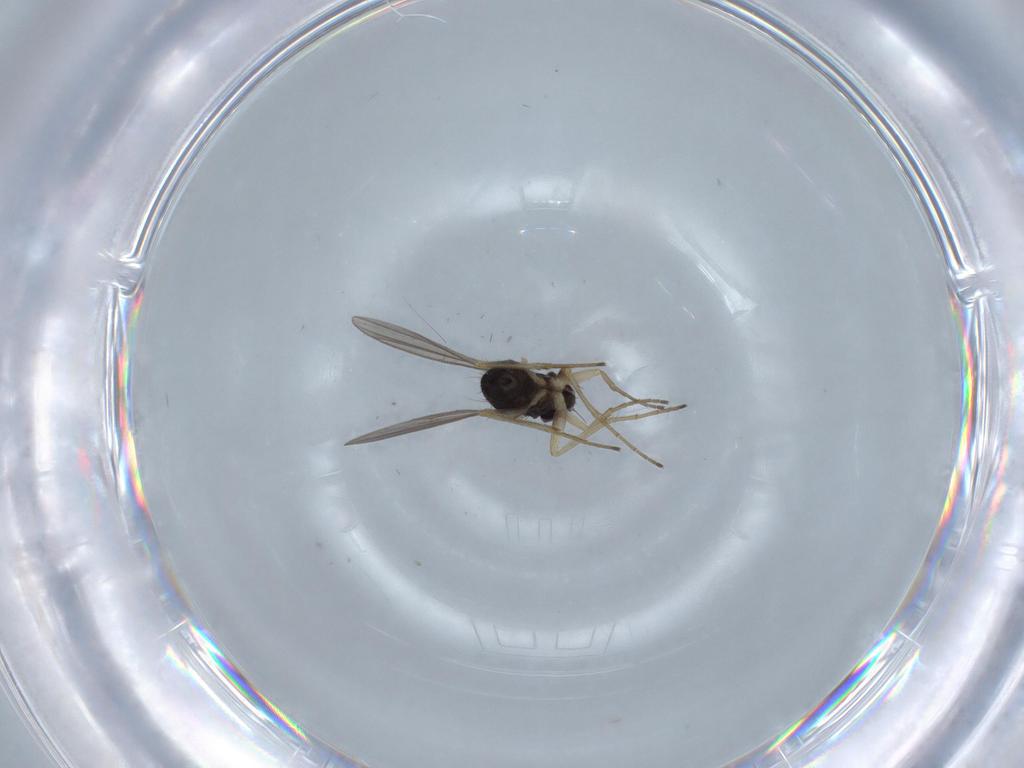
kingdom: Animalia
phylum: Arthropoda
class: Insecta
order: Diptera
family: Dolichopodidae
